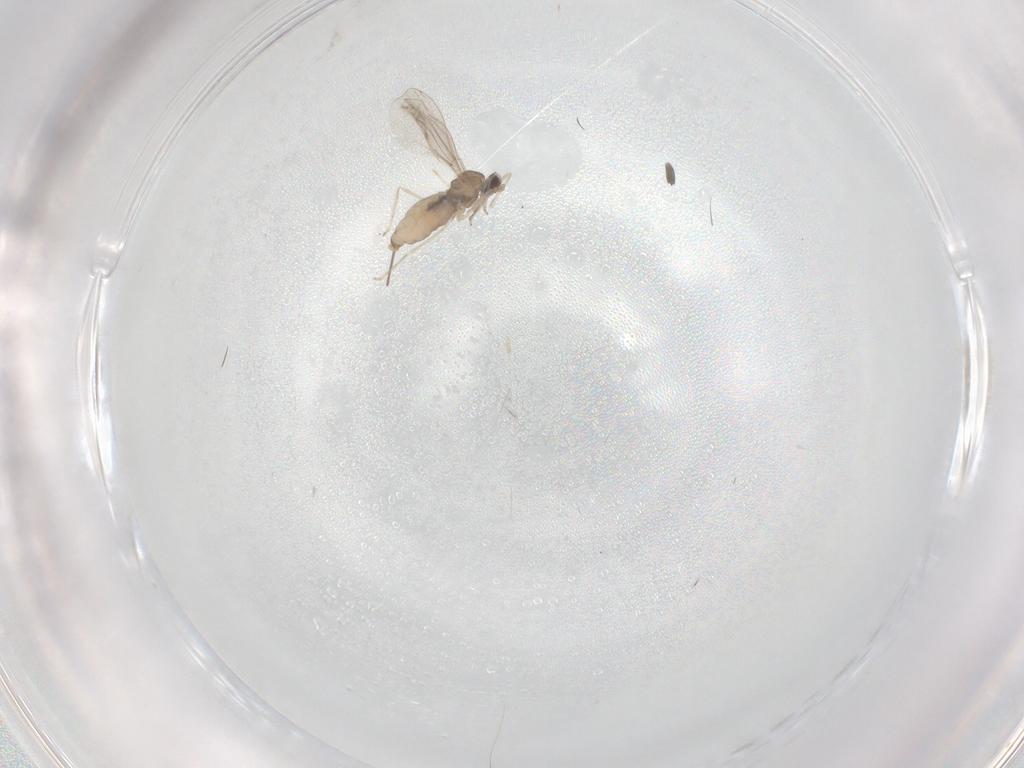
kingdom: Animalia
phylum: Arthropoda
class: Insecta
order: Diptera
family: Cecidomyiidae
